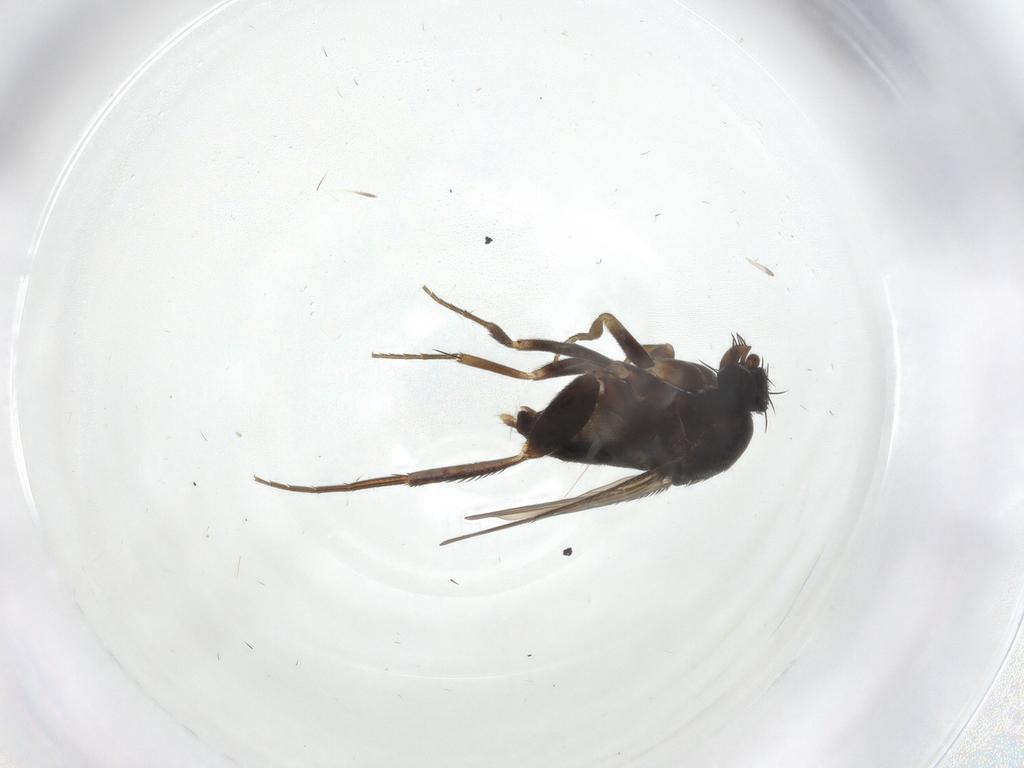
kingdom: Animalia
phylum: Arthropoda
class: Insecta
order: Diptera
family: Phoridae
